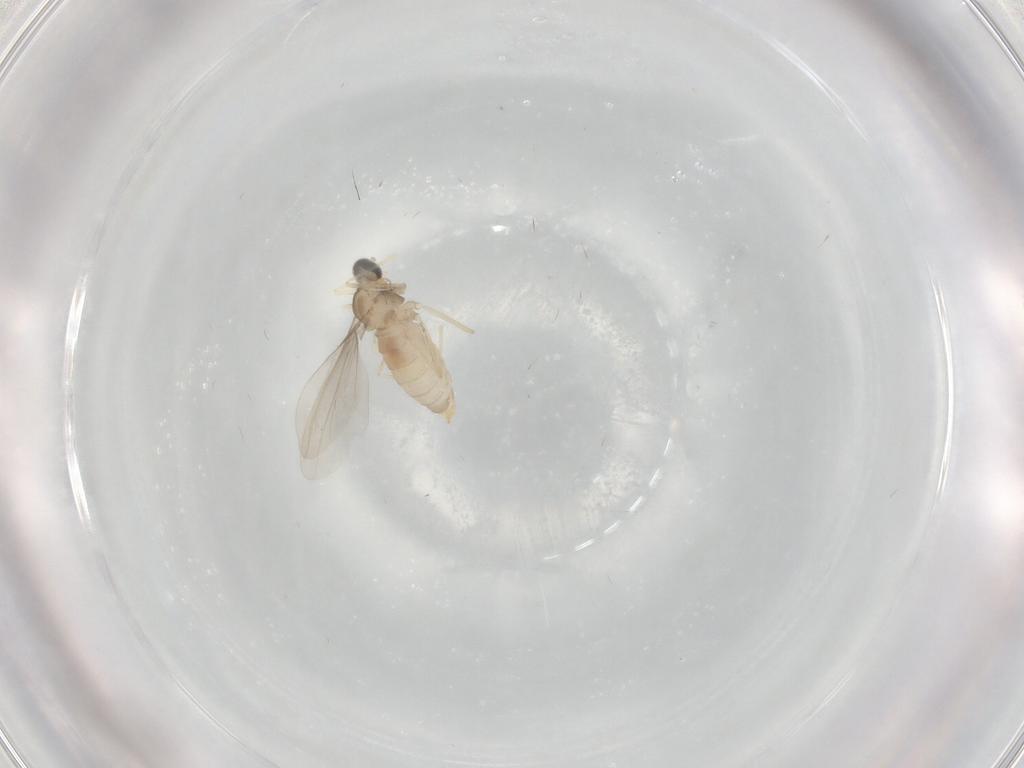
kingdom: Animalia
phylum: Arthropoda
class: Insecta
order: Diptera
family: Cecidomyiidae
